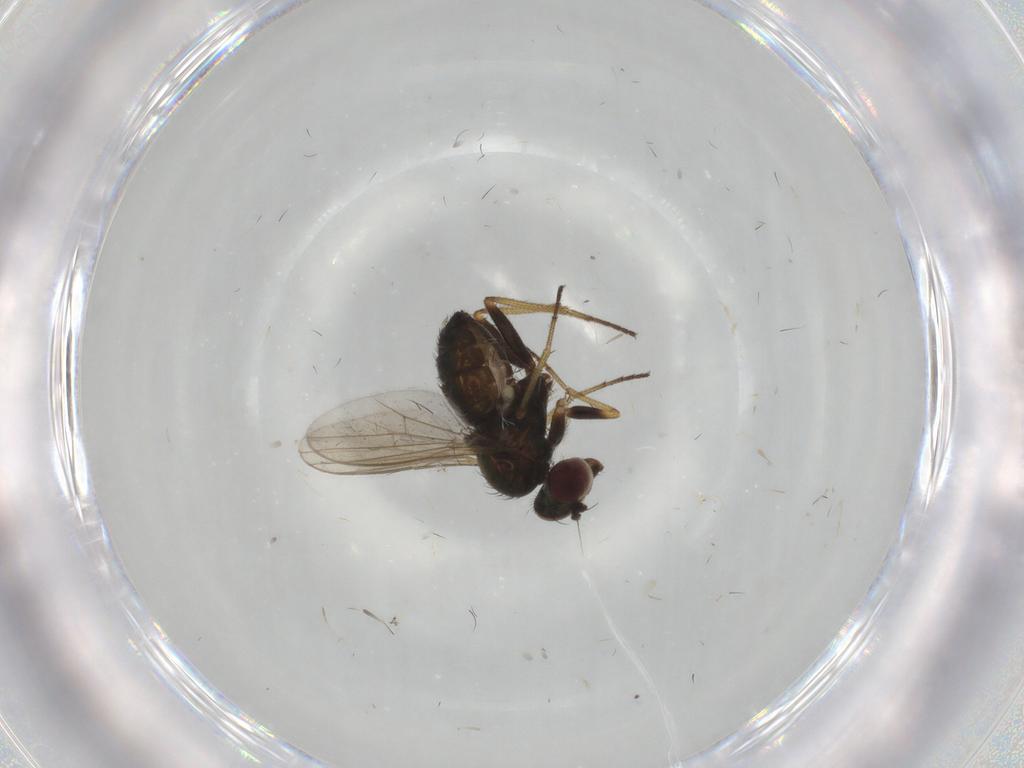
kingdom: Animalia
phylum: Arthropoda
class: Insecta
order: Diptera
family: Dolichopodidae
